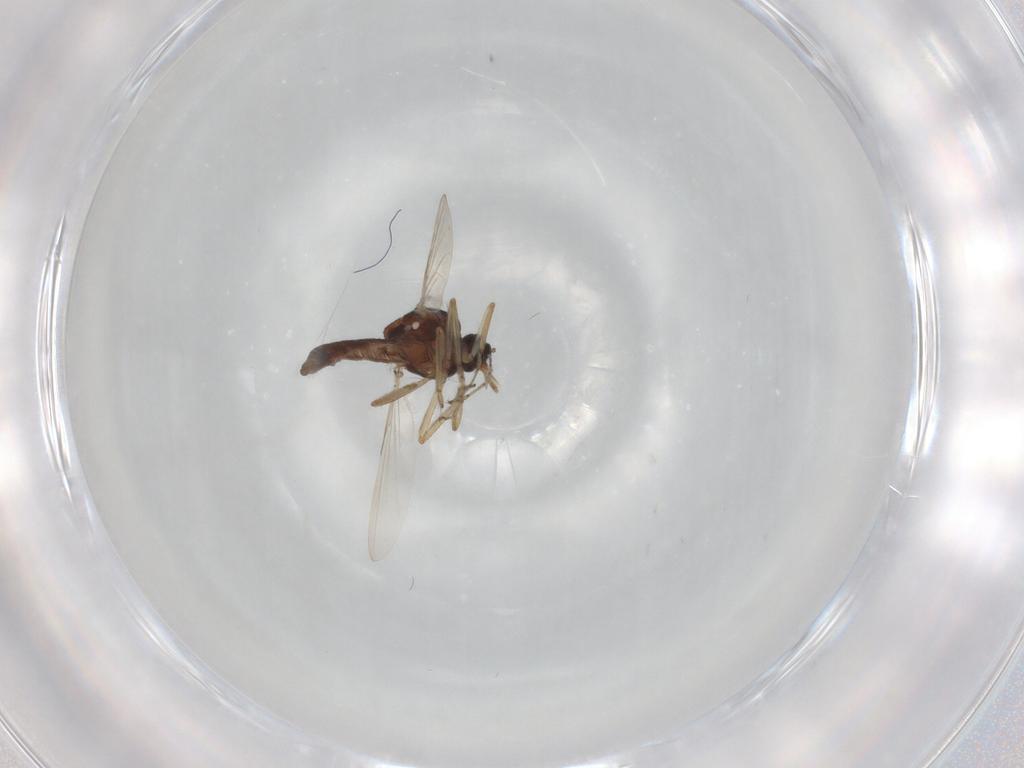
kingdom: Animalia
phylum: Arthropoda
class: Insecta
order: Diptera
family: Ceratopogonidae
